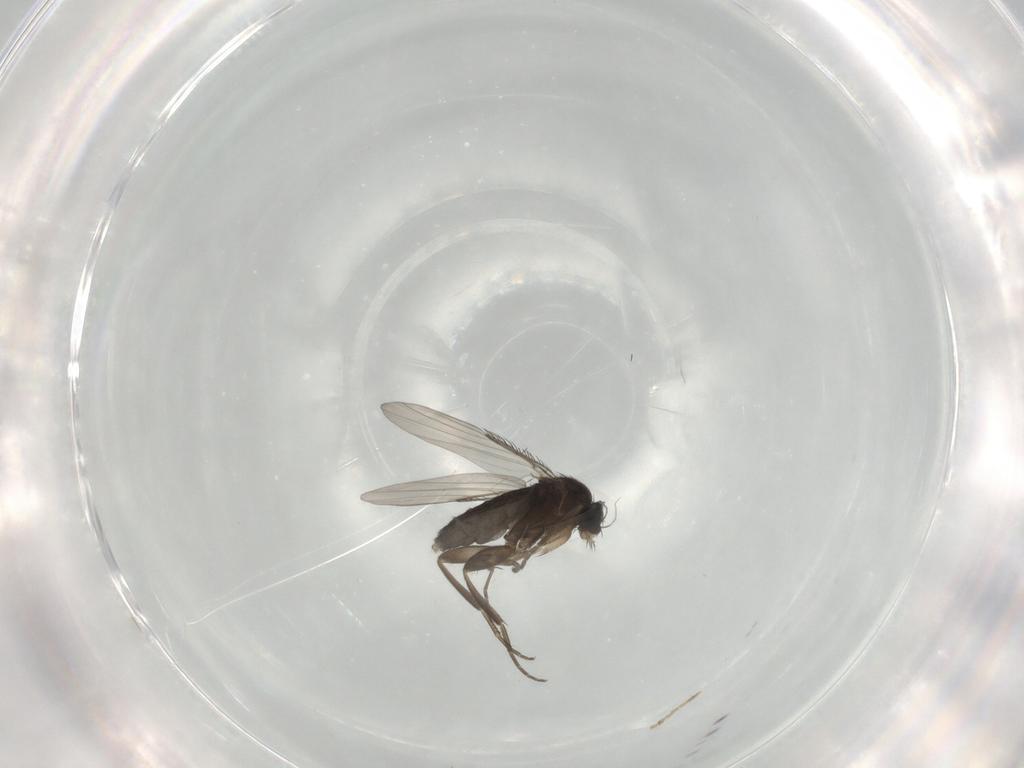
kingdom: Animalia
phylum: Arthropoda
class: Insecta
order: Diptera
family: Phoridae
